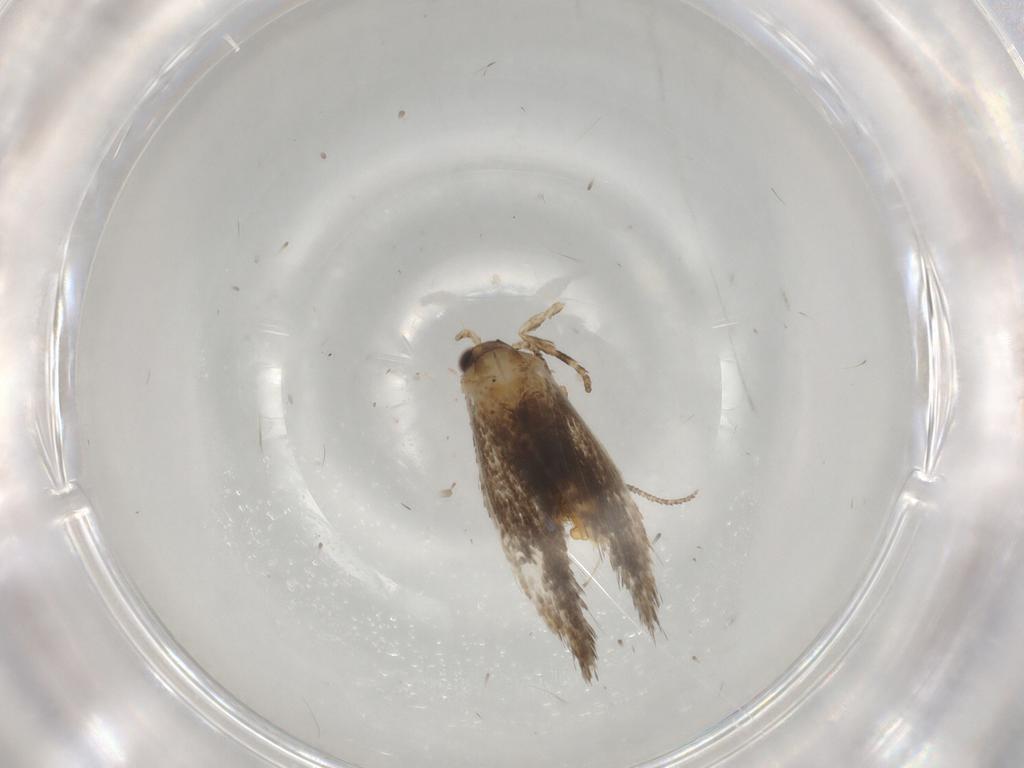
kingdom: Animalia
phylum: Arthropoda
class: Insecta
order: Lepidoptera
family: Tineidae
